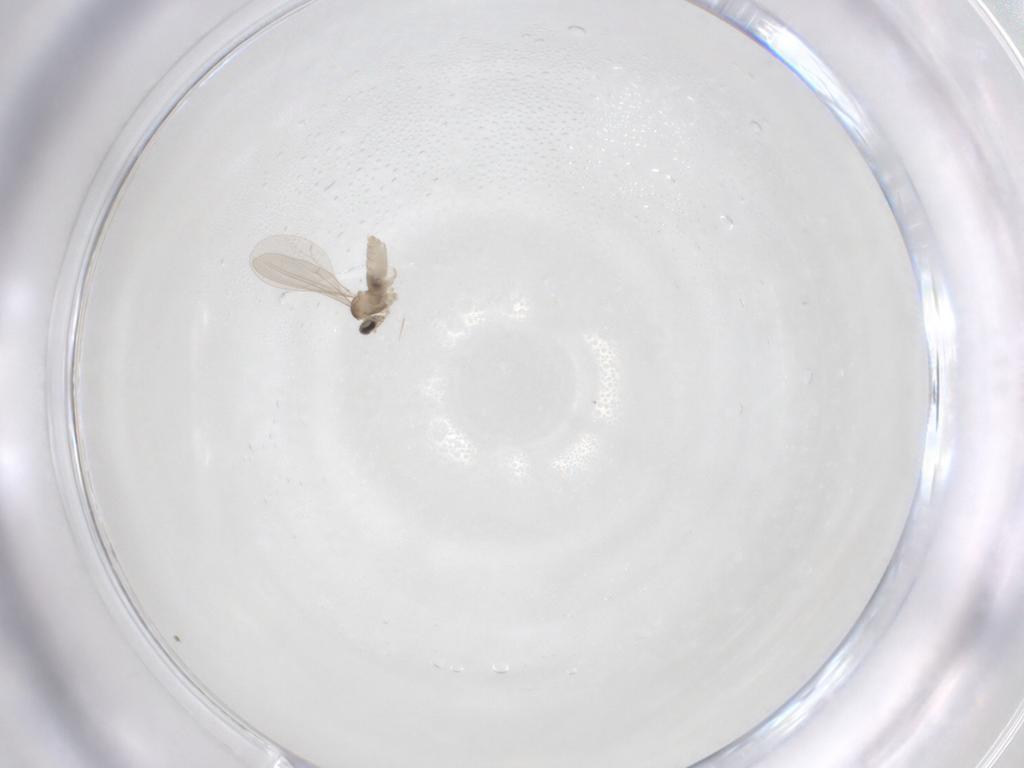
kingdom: Animalia
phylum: Arthropoda
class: Insecta
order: Diptera
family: Cecidomyiidae
